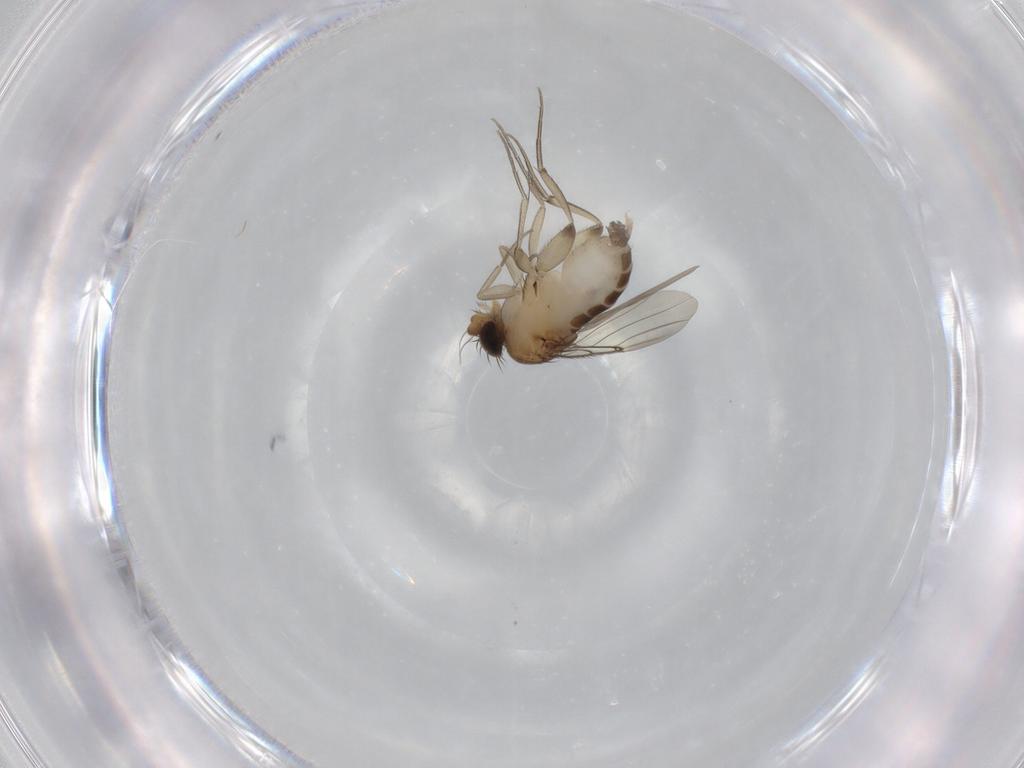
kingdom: Animalia
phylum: Arthropoda
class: Insecta
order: Diptera
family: Phoridae
